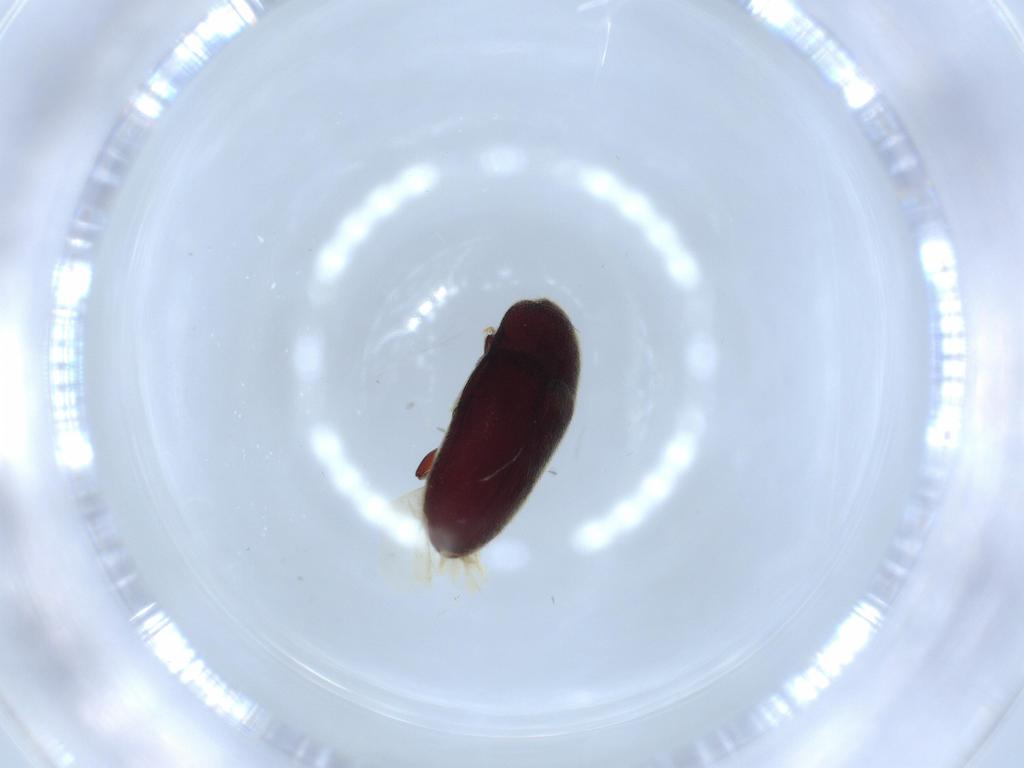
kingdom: Animalia
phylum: Arthropoda
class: Insecta
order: Coleoptera
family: Throscidae
